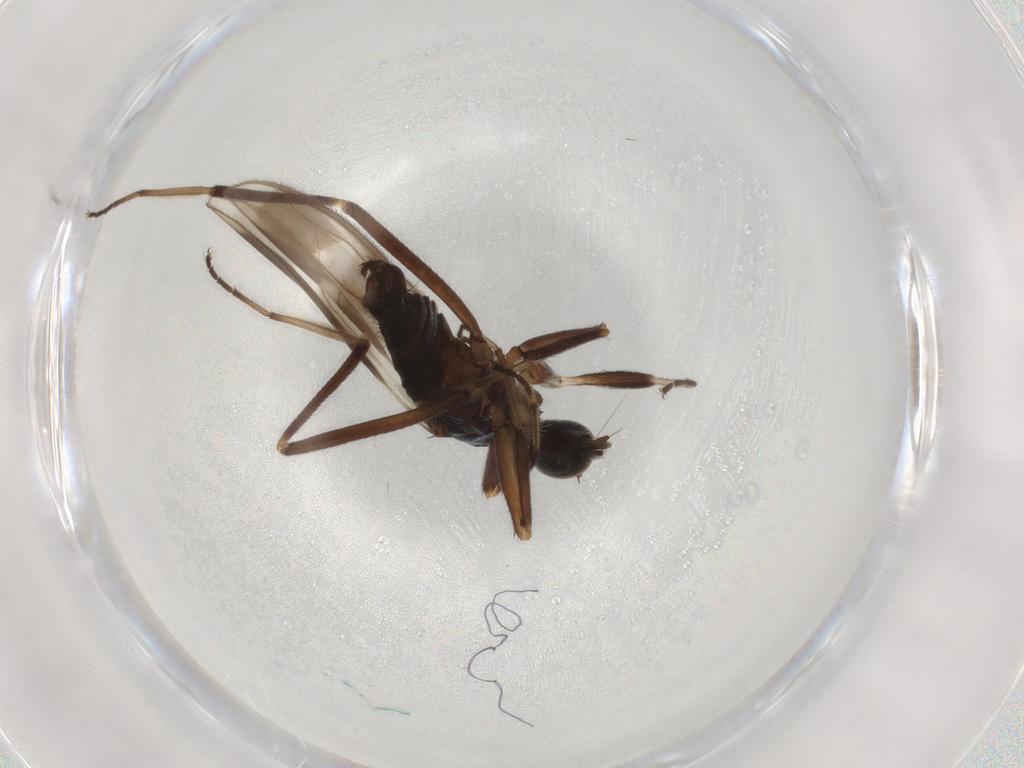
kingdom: Animalia
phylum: Arthropoda
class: Insecta
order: Diptera
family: Hybotidae
